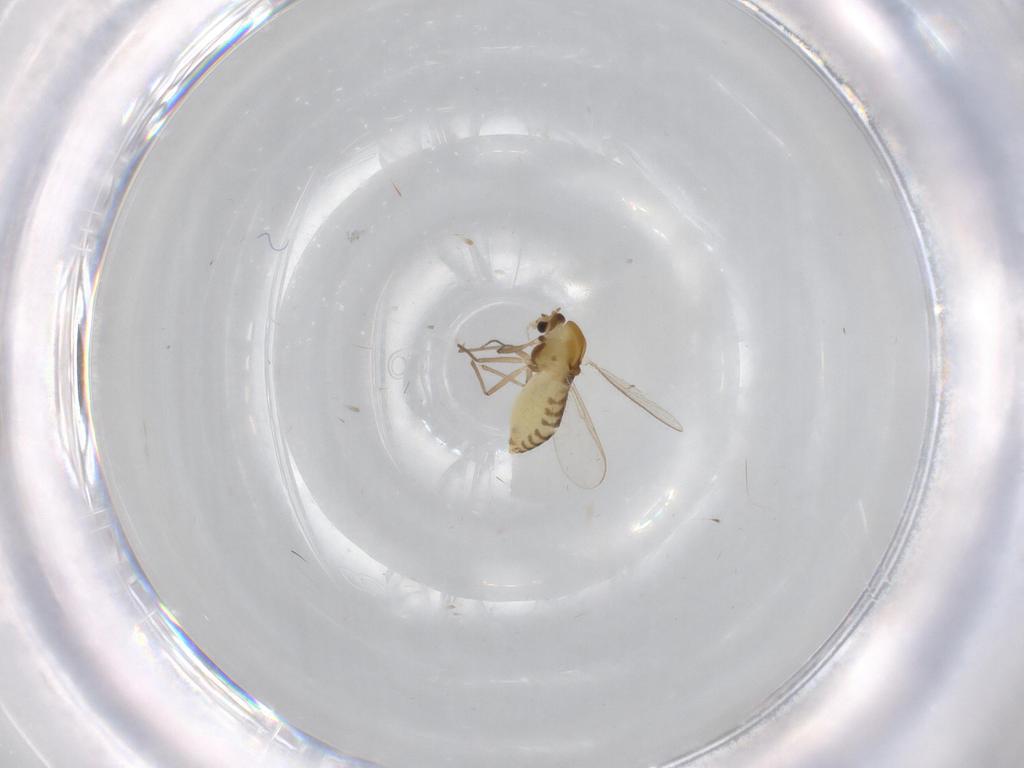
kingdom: Animalia
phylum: Arthropoda
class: Insecta
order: Diptera
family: Chironomidae
